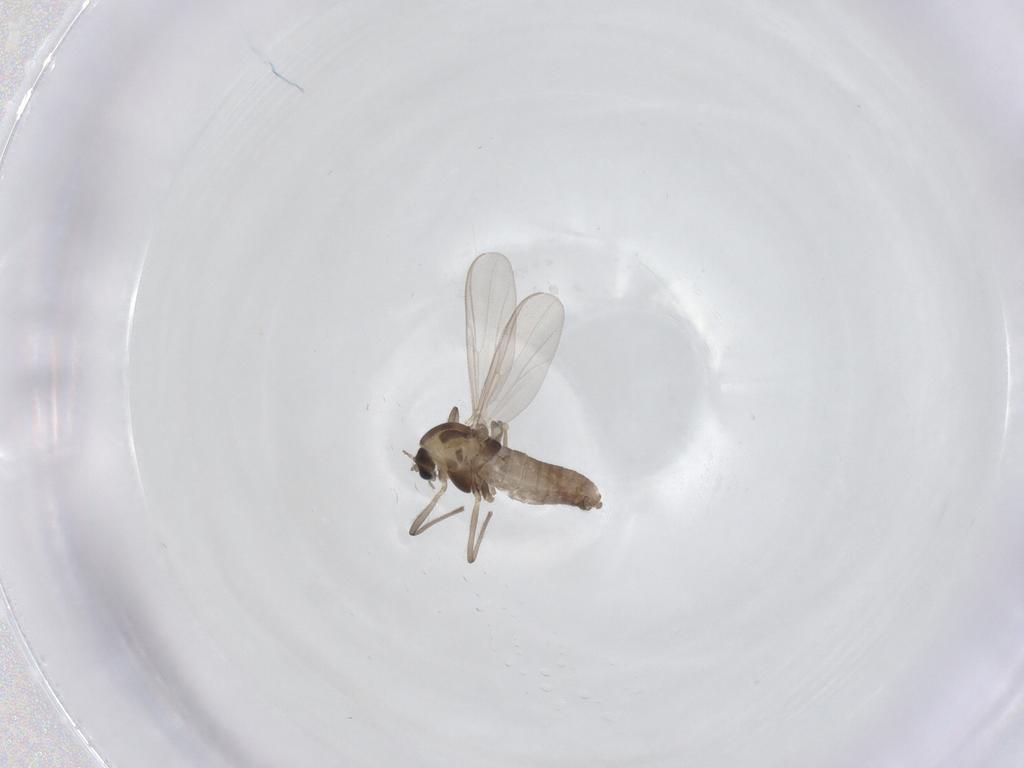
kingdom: Animalia
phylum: Arthropoda
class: Insecta
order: Diptera
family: Chironomidae
